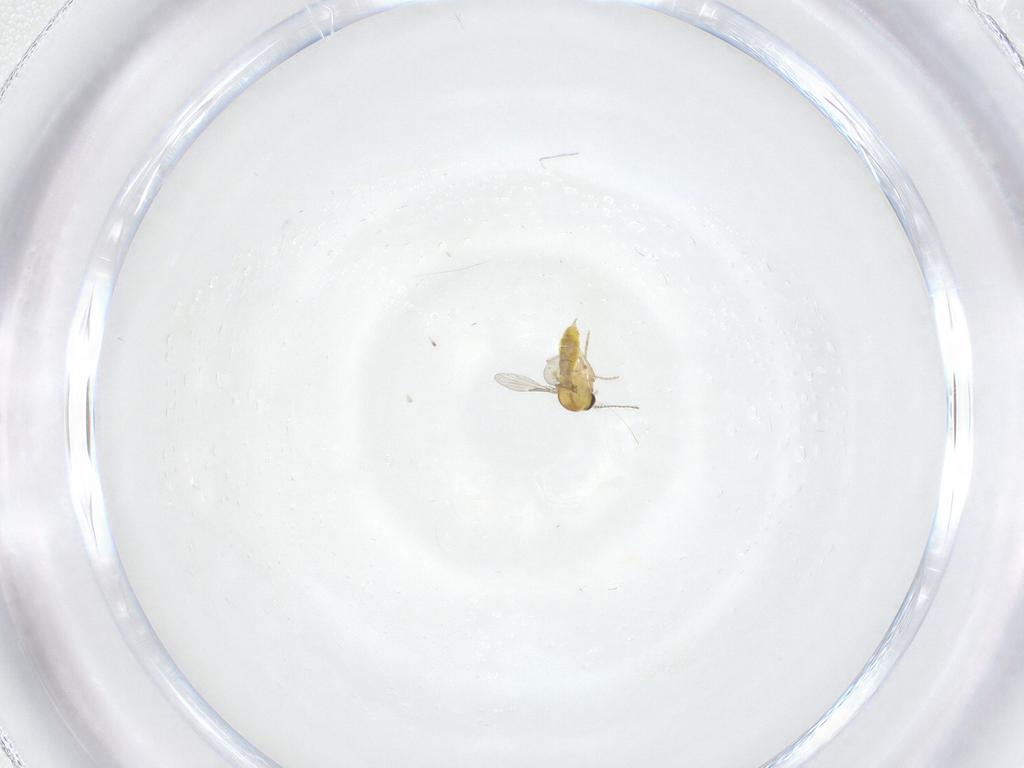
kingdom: Animalia
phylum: Arthropoda
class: Insecta
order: Diptera
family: Ceratopogonidae
